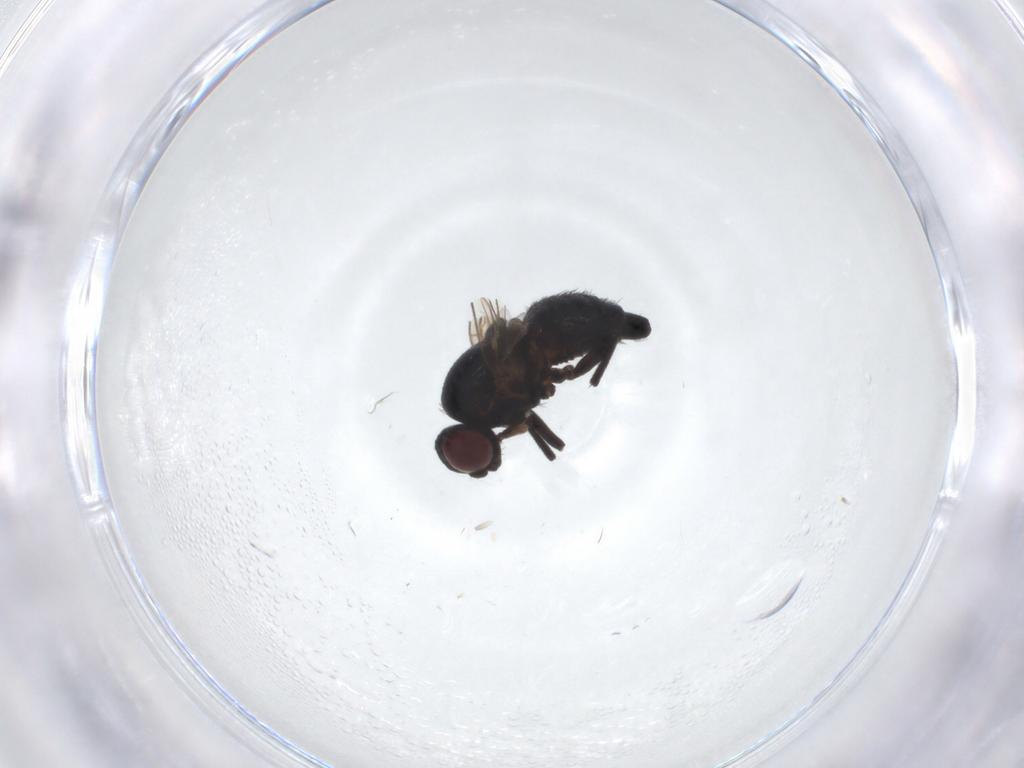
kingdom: Animalia
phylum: Arthropoda
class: Insecta
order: Diptera
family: Agromyzidae
